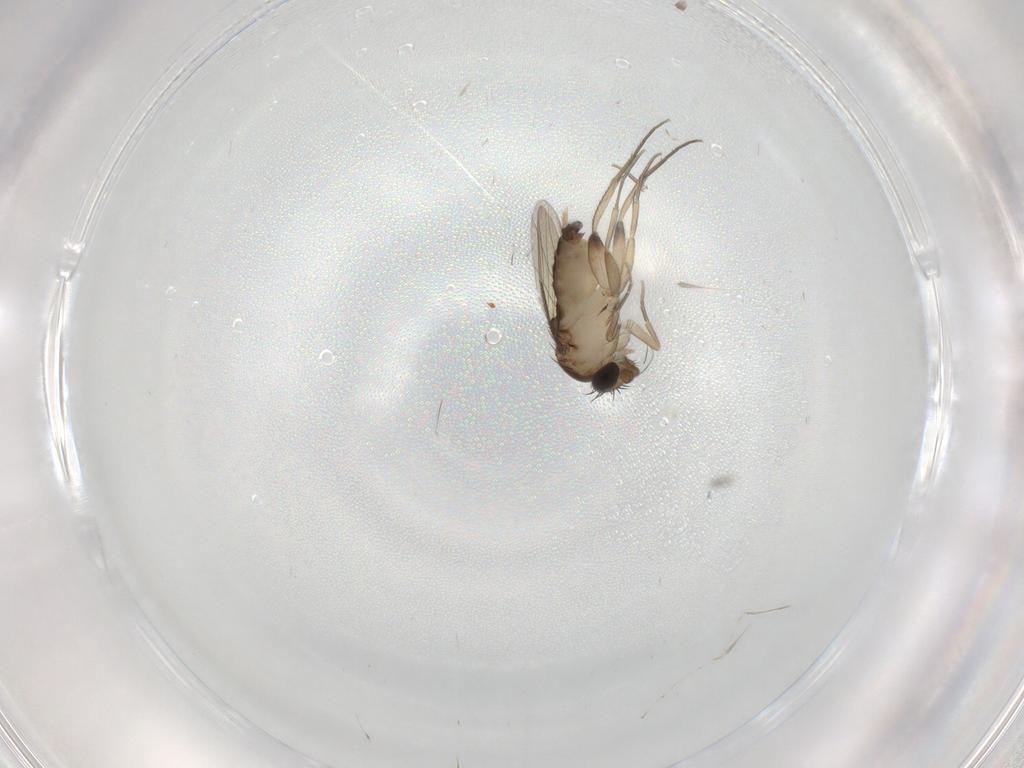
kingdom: Animalia
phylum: Arthropoda
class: Insecta
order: Diptera
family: Phoridae
